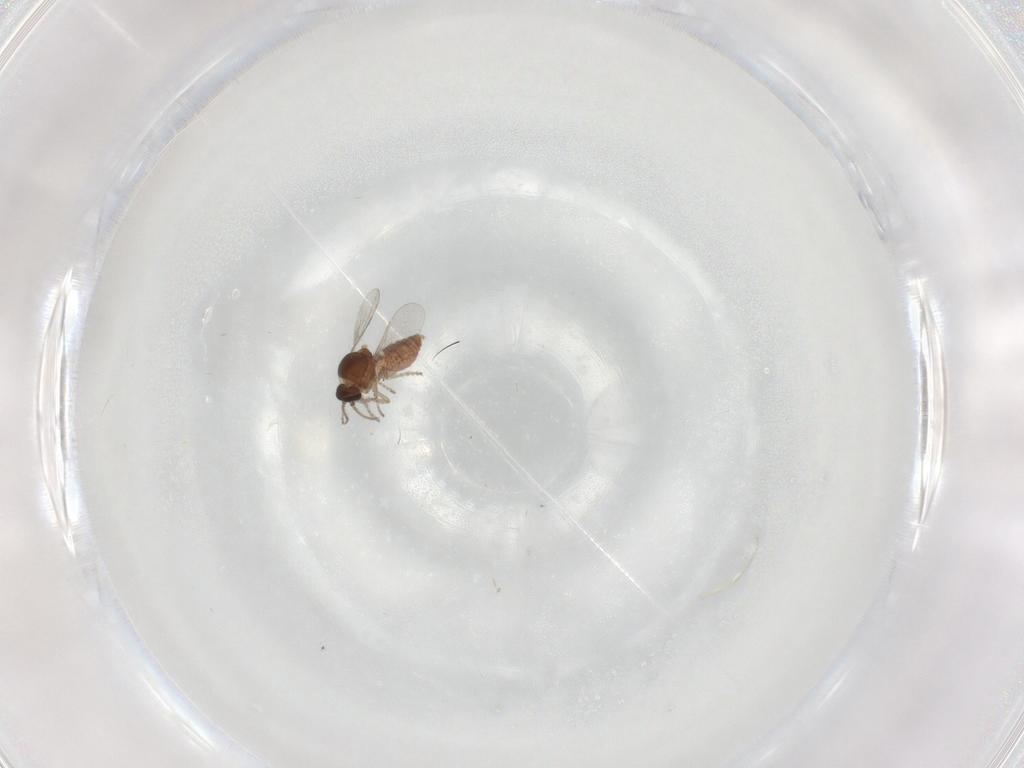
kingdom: Animalia
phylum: Arthropoda
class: Insecta
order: Diptera
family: Ceratopogonidae
